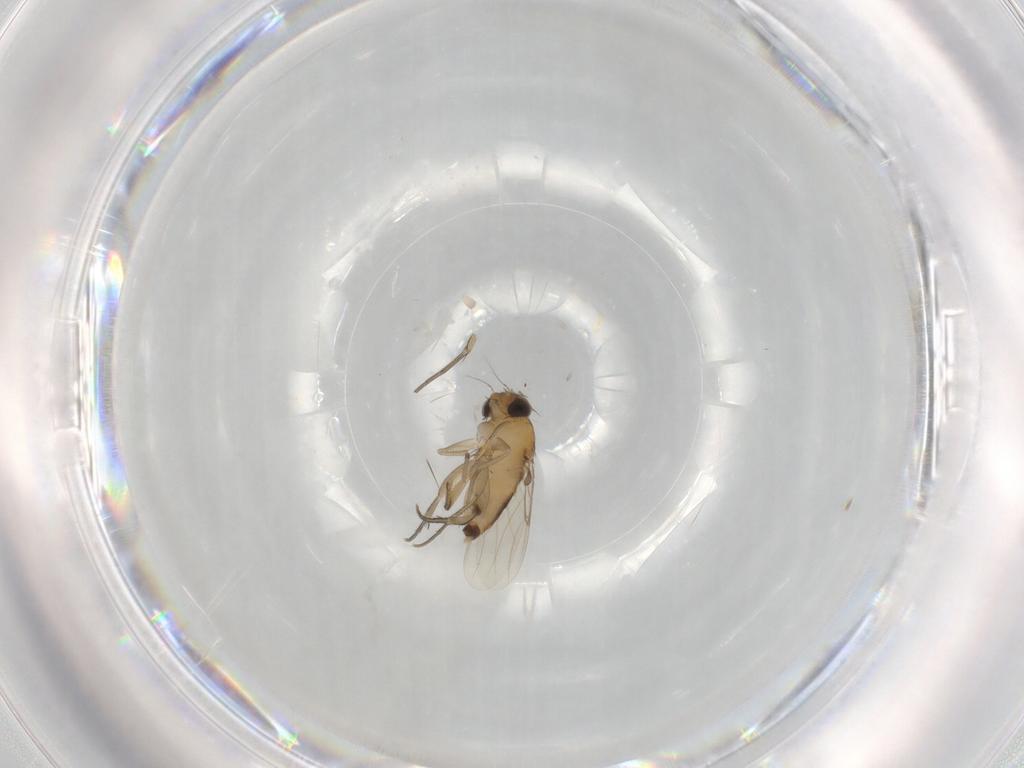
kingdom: Animalia
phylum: Arthropoda
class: Insecta
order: Diptera
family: Phoridae
